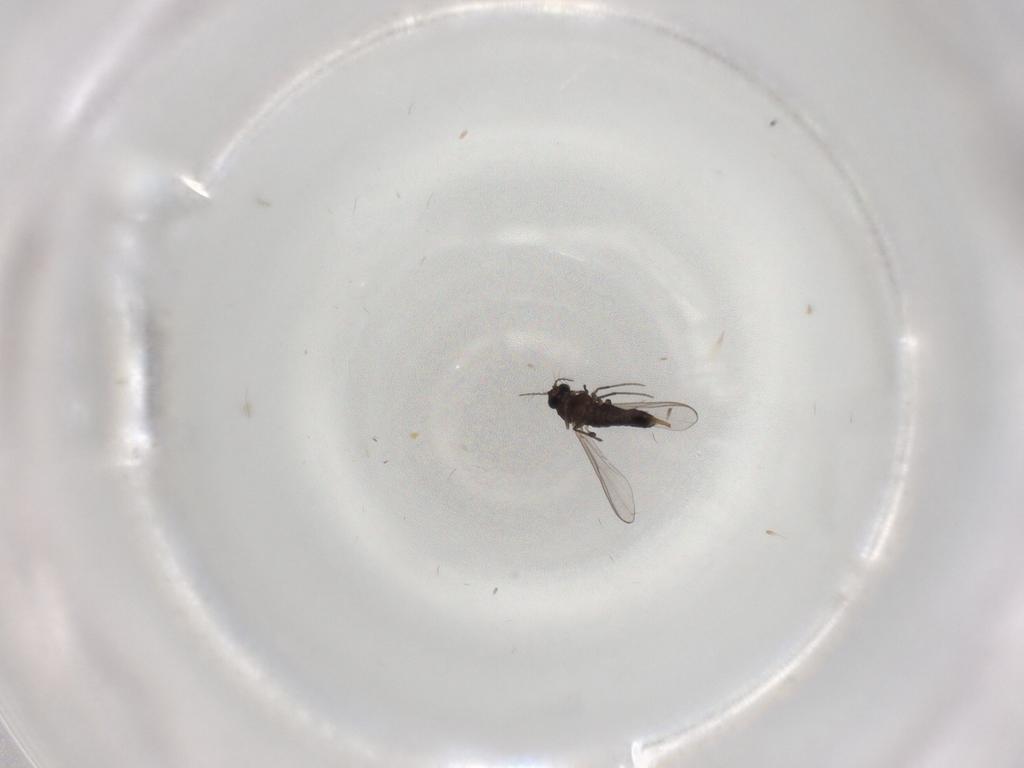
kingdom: Animalia
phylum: Arthropoda
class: Insecta
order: Diptera
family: Chironomidae
